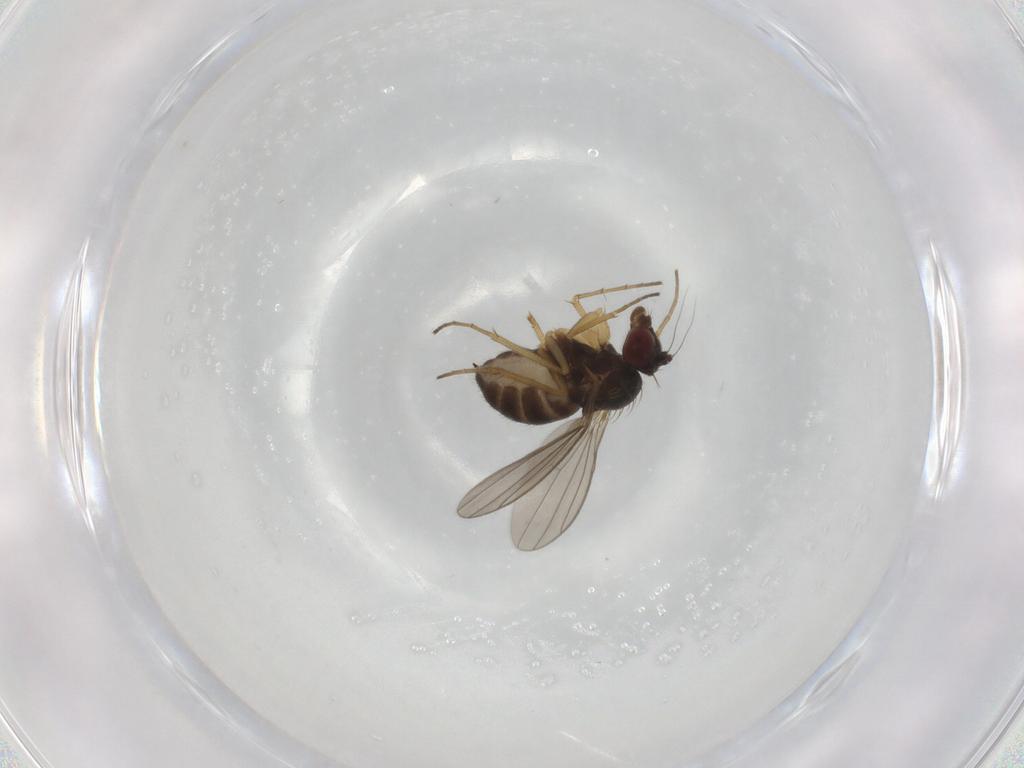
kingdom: Animalia
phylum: Arthropoda
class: Insecta
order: Diptera
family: Dolichopodidae
